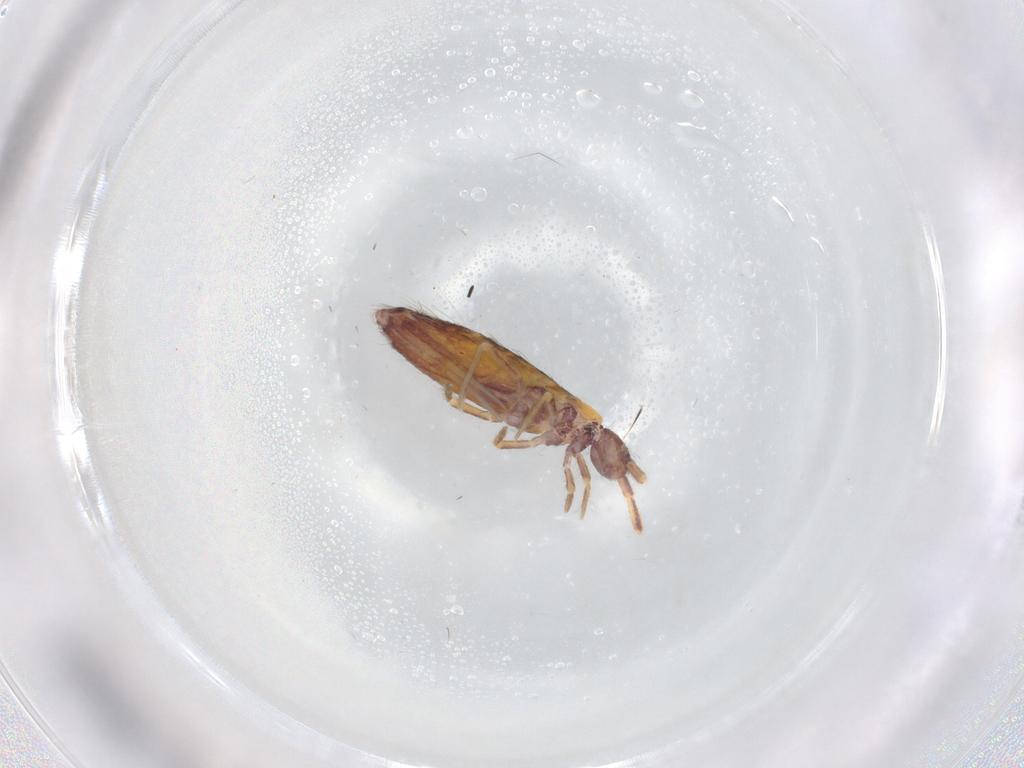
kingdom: Animalia
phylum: Arthropoda
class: Collembola
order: Entomobryomorpha
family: Entomobryidae
